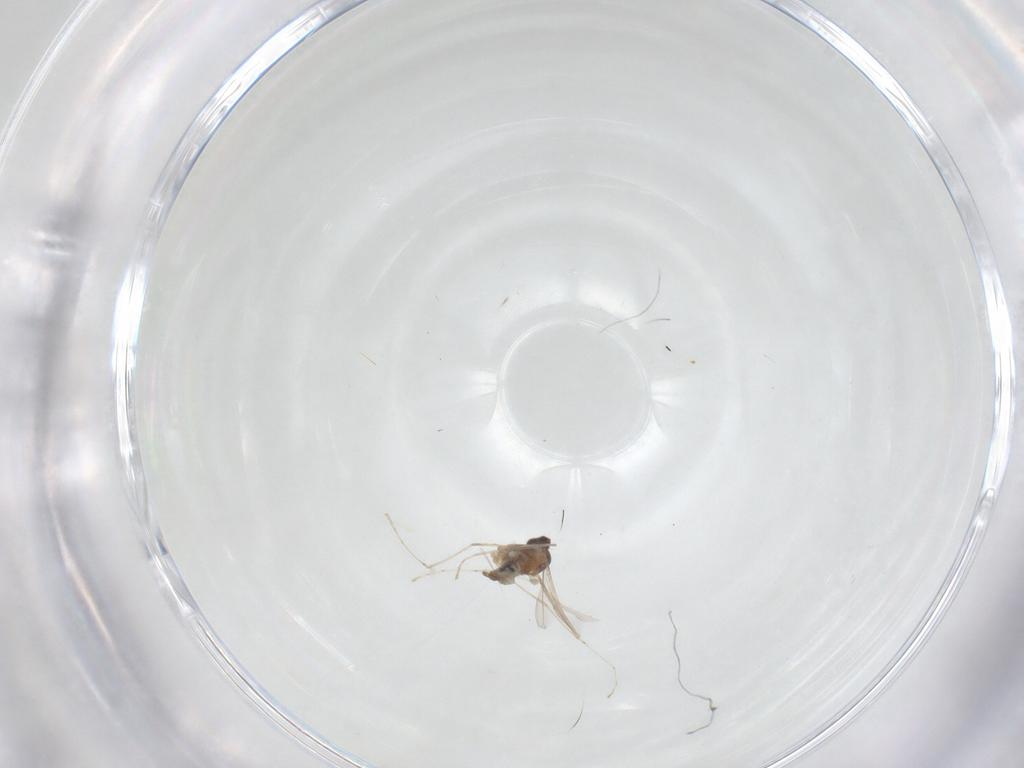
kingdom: Animalia
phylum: Arthropoda
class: Insecta
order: Diptera
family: Cecidomyiidae
